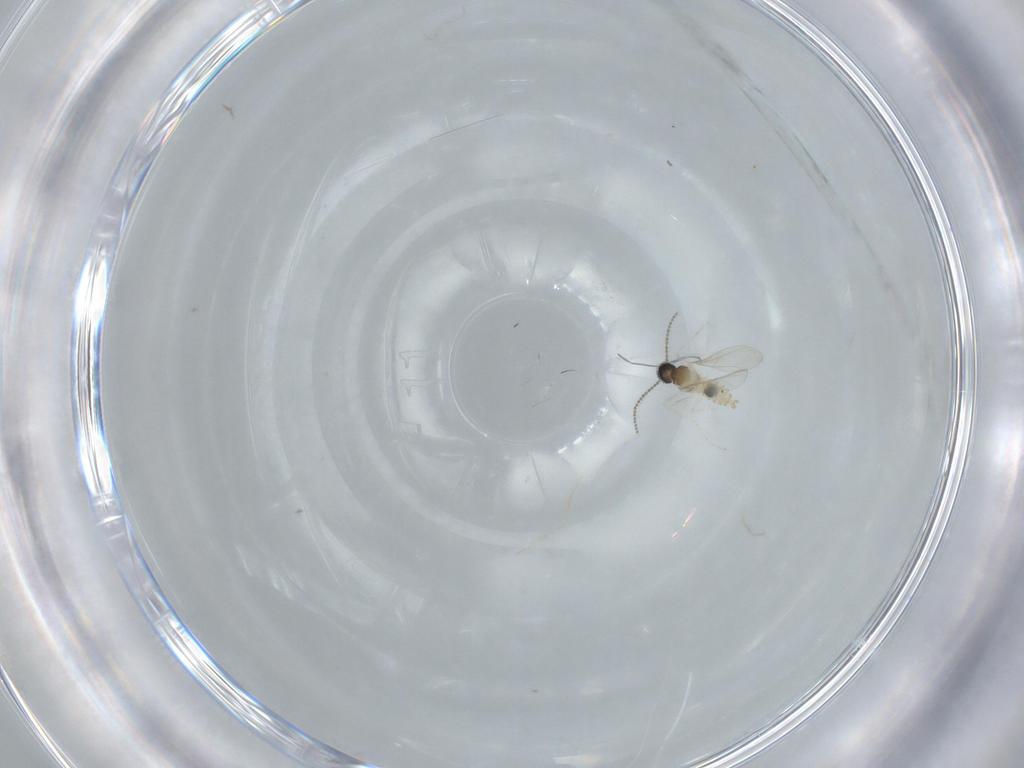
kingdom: Animalia
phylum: Arthropoda
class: Insecta
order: Diptera
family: Cecidomyiidae
